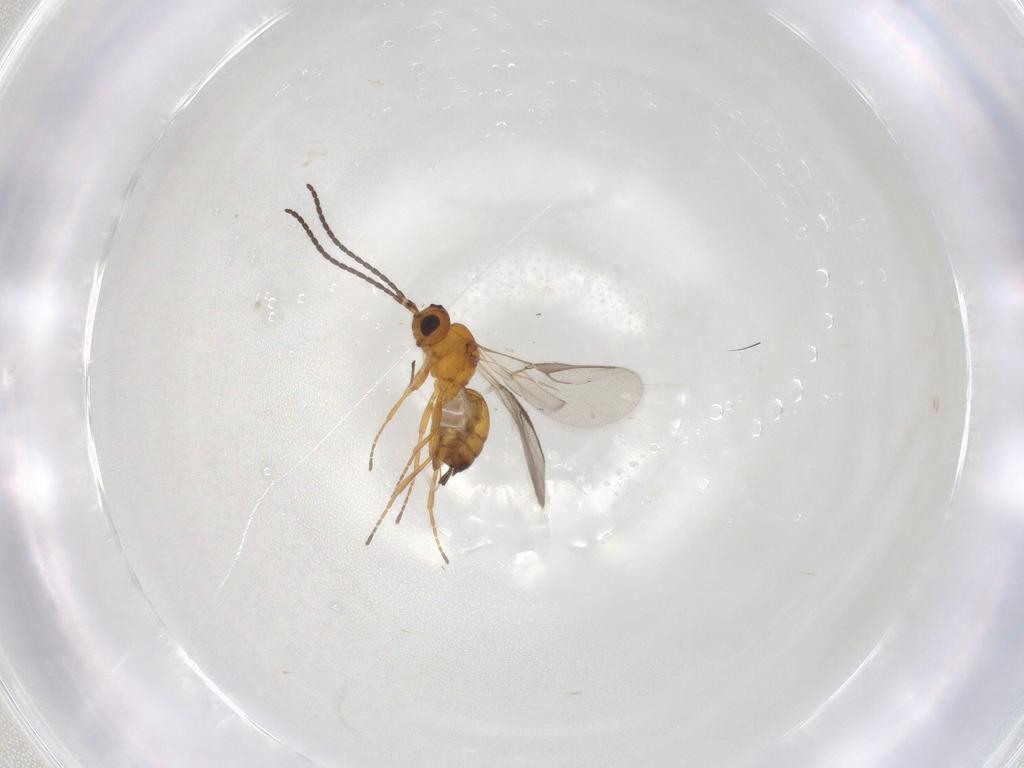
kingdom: Animalia
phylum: Arthropoda
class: Insecta
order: Hymenoptera
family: Braconidae
